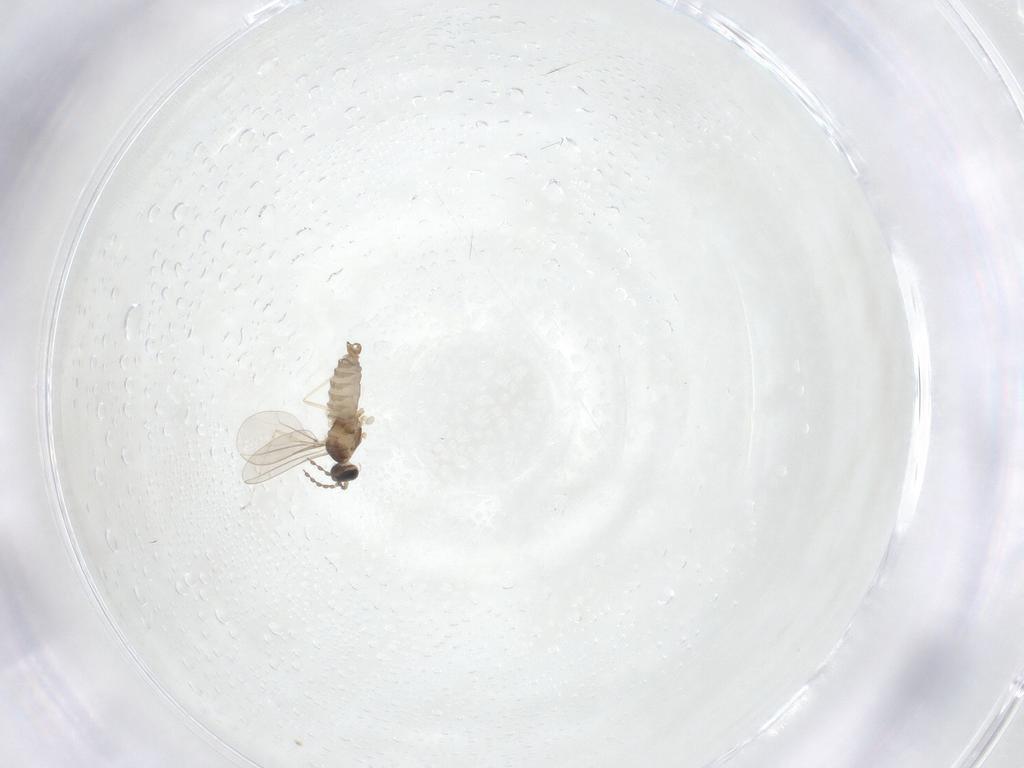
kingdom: Animalia
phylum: Arthropoda
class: Insecta
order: Diptera
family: Cecidomyiidae
